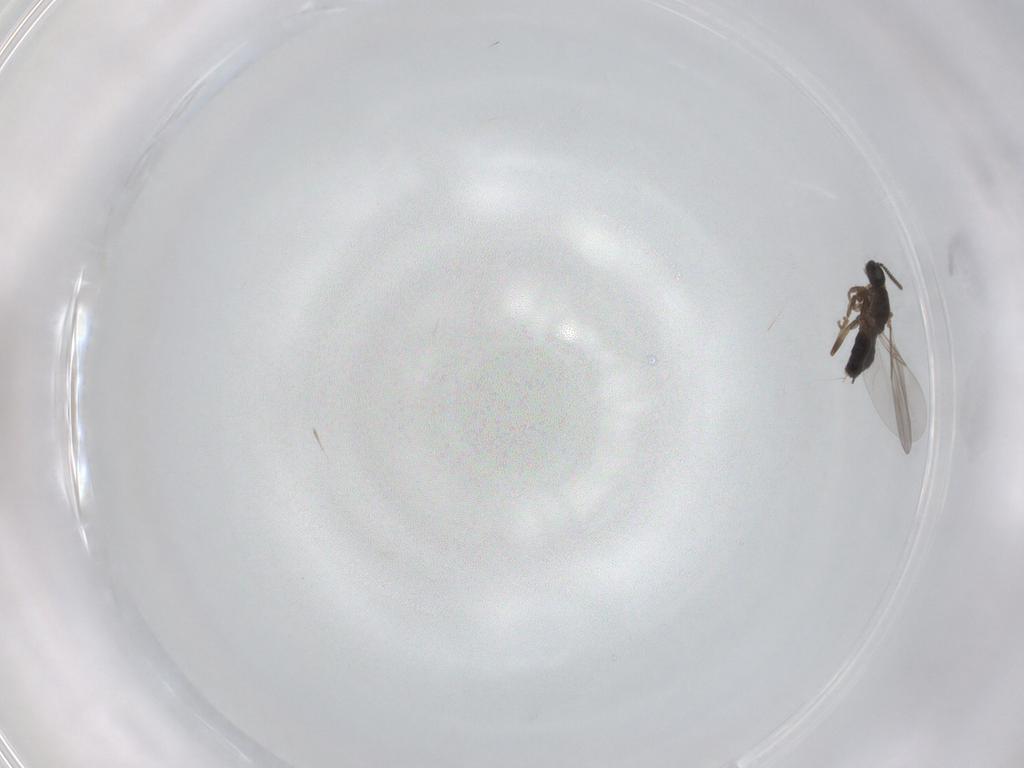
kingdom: Animalia
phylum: Arthropoda
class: Insecta
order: Diptera
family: Scatopsidae
